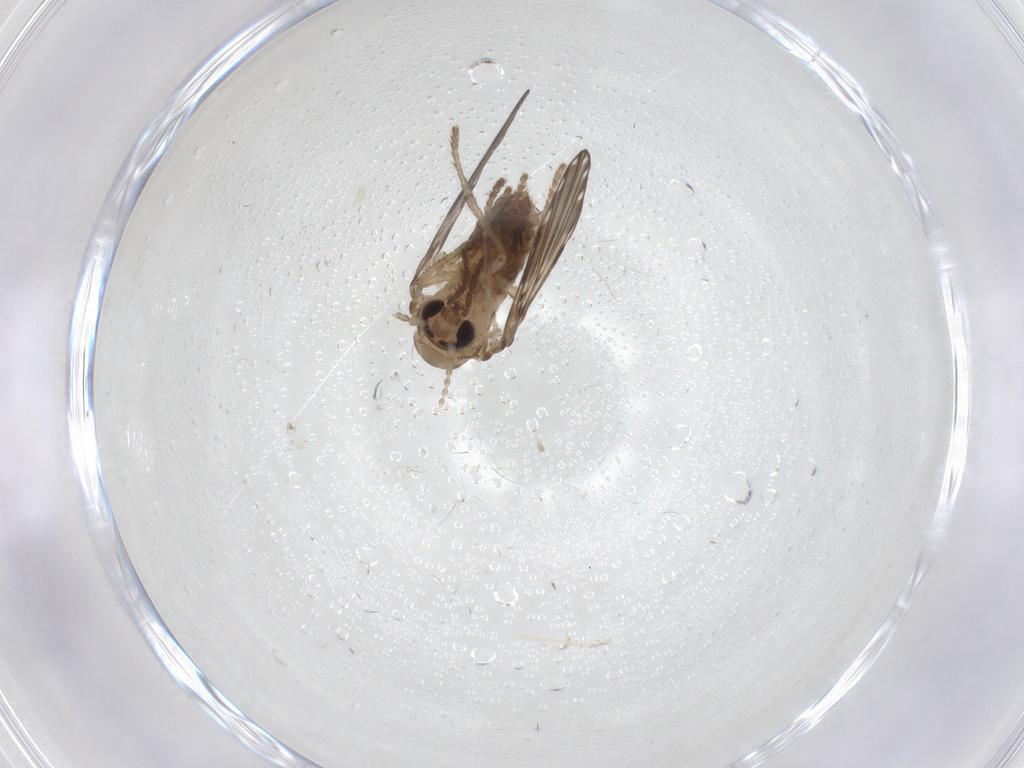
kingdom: Animalia
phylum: Arthropoda
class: Insecta
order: Diptera
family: Psychodidae
